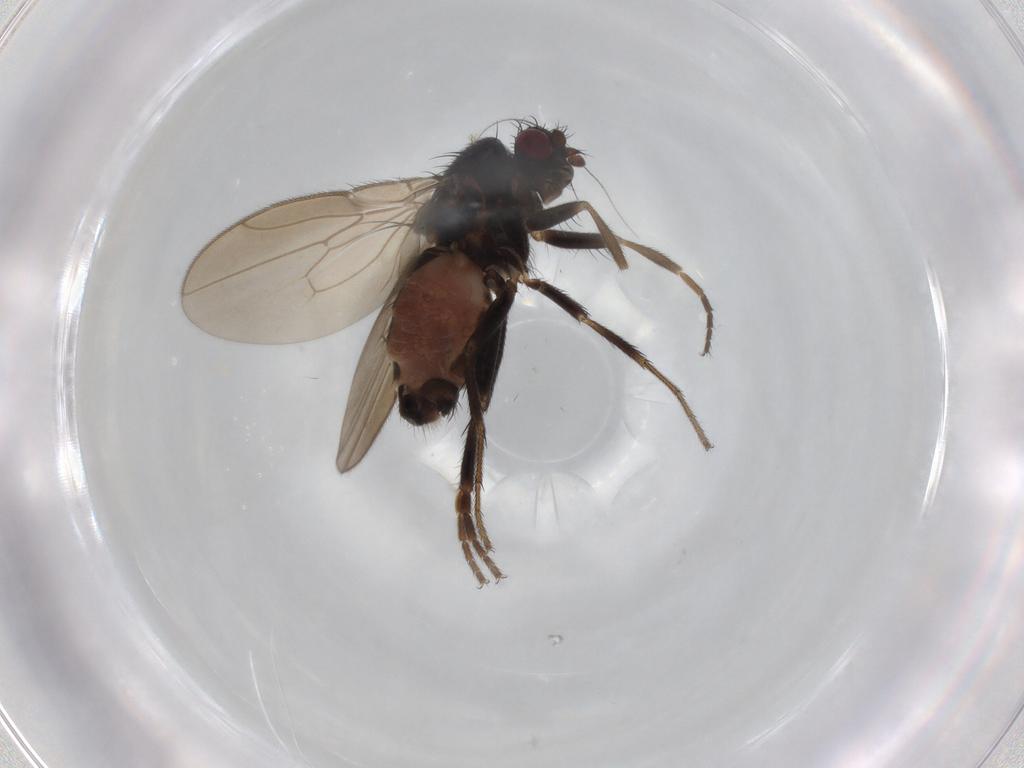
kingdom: Animalia
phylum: Arthropoda
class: Insecta
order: Diptera
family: Sphaeroceridae
